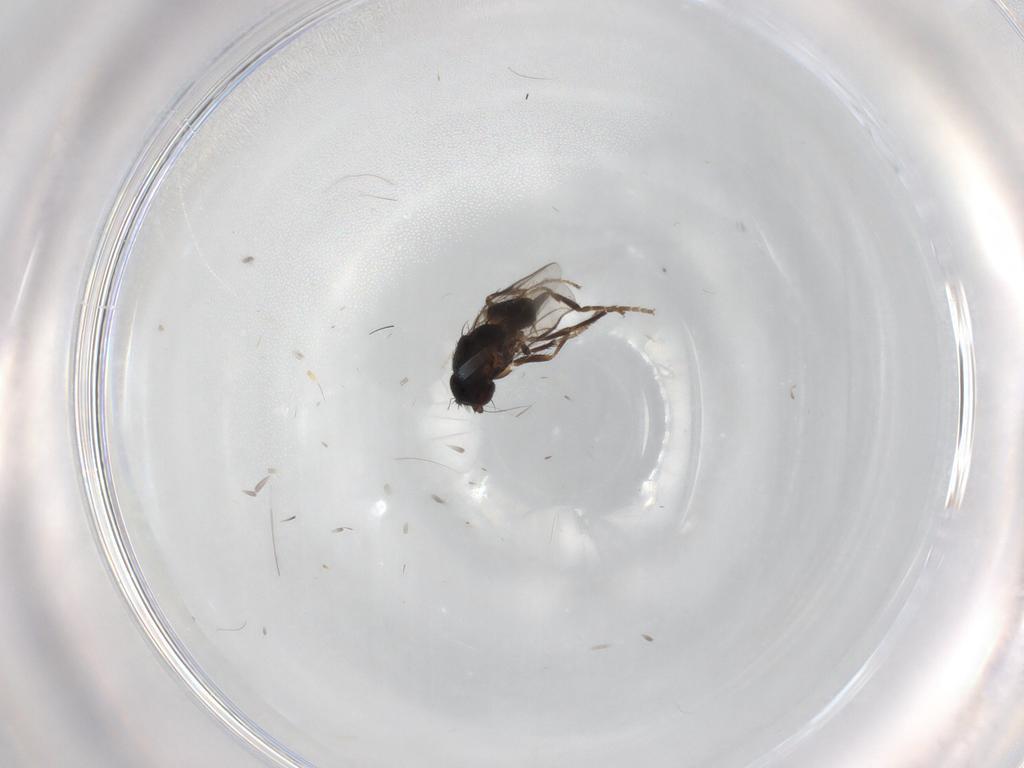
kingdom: Animalia
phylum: Arthropoda
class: Insecta
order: Diptera
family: Sphaeroceridae
